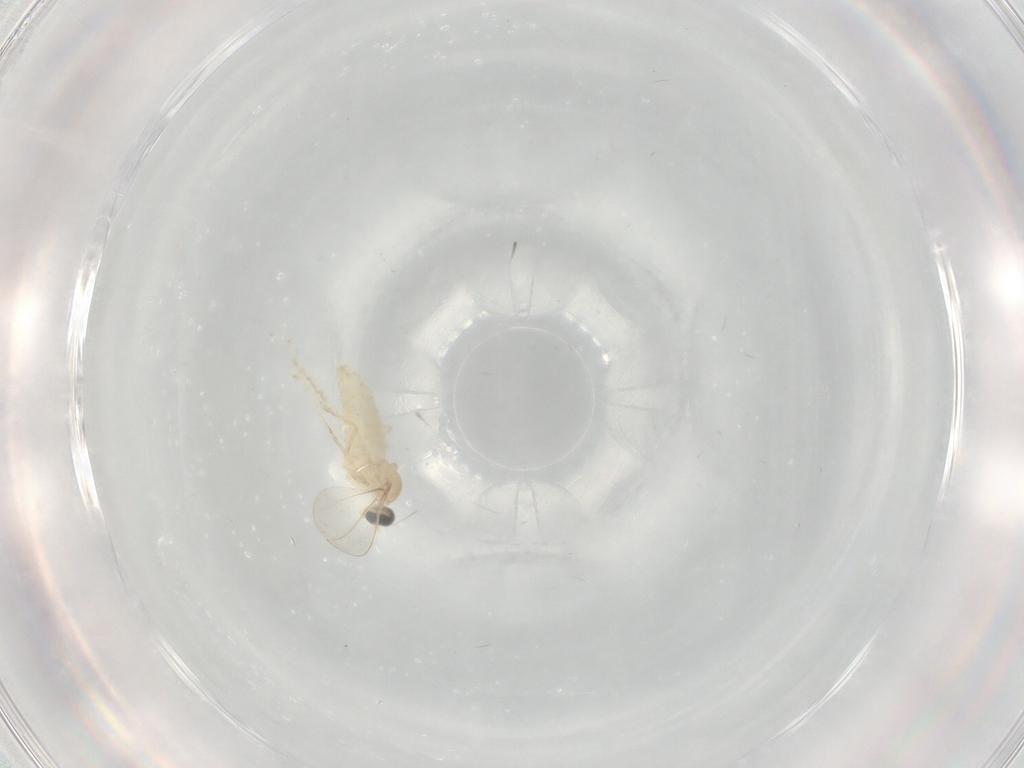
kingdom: Animalia
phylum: Arthropoda
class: Insecta
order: Diptera
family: Cecidomyiidae
